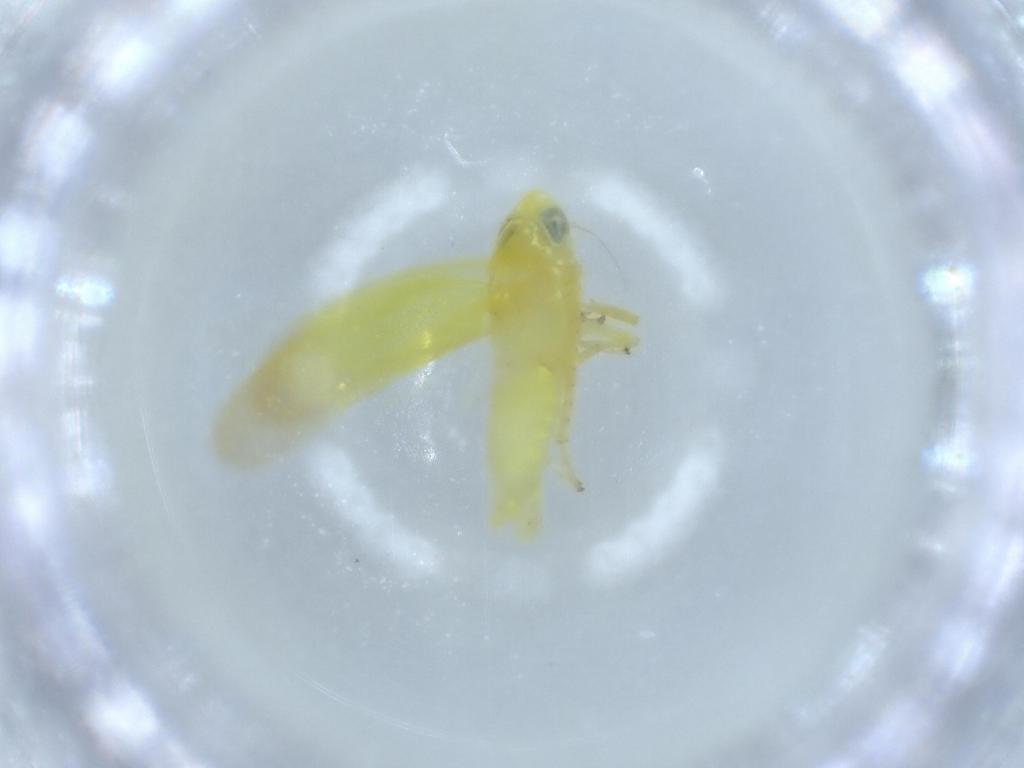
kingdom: Animalia
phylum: Arthropoda
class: Insecta
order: Hemiptera
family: Cicadellidae
